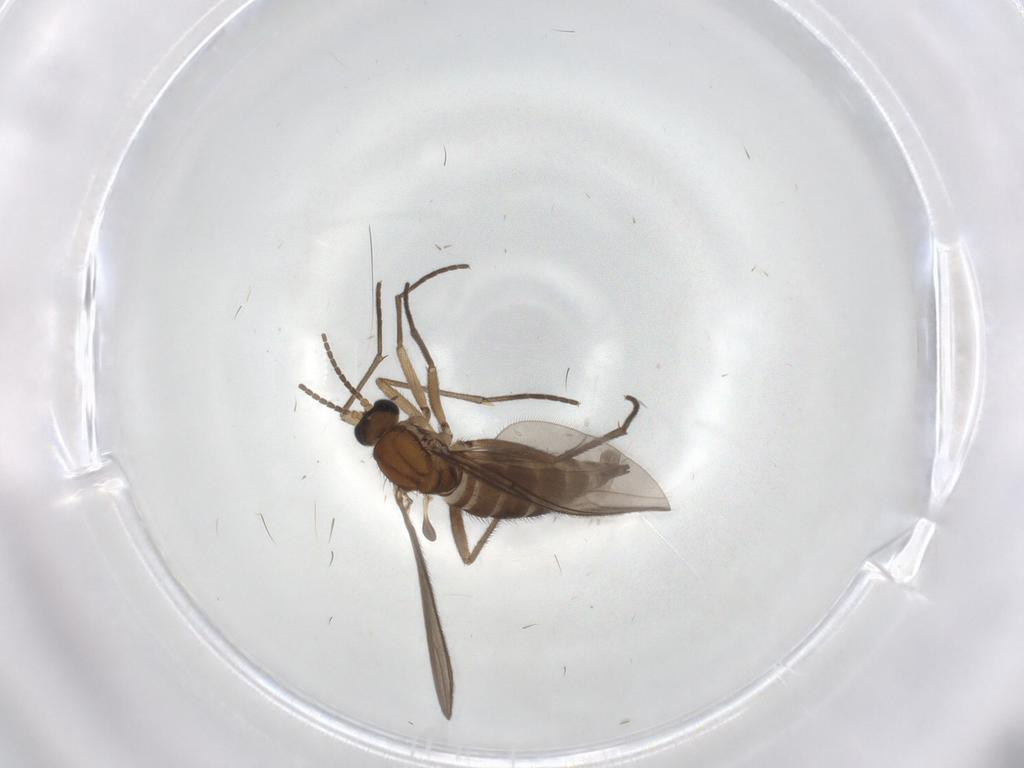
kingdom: Animalia
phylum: Arthropoda
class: Insecta
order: Diptera
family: Sciaridae
